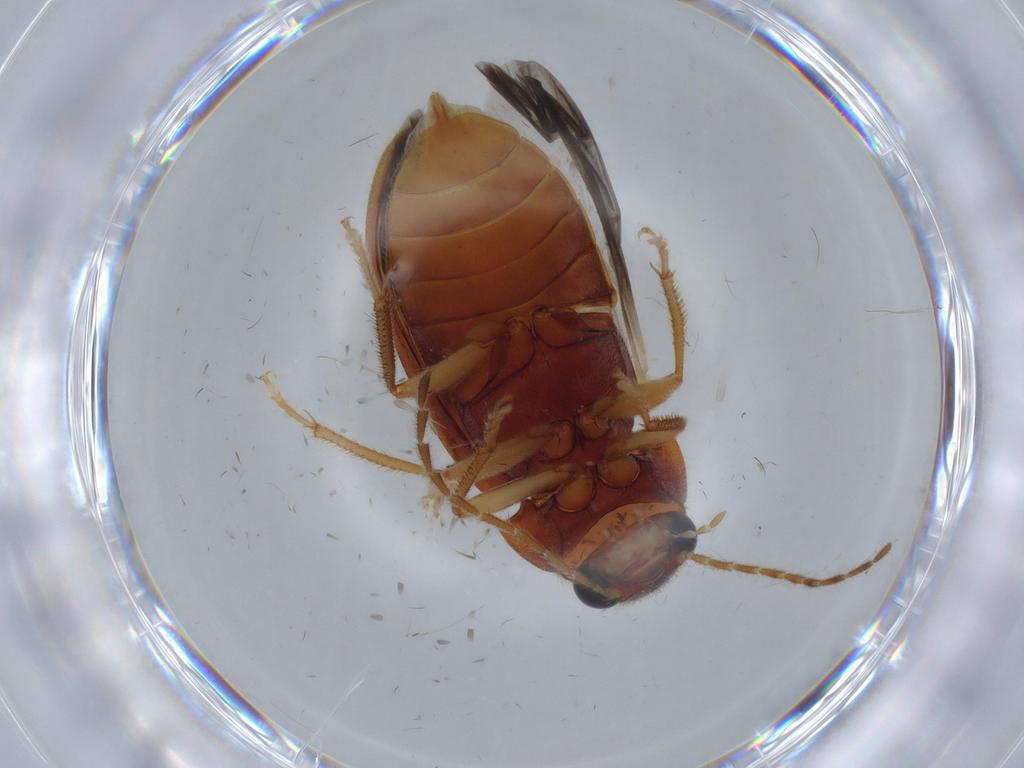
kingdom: Animalia
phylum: Arthropoda
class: Insecta
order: Coleoptera
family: Ptilodactylidae
